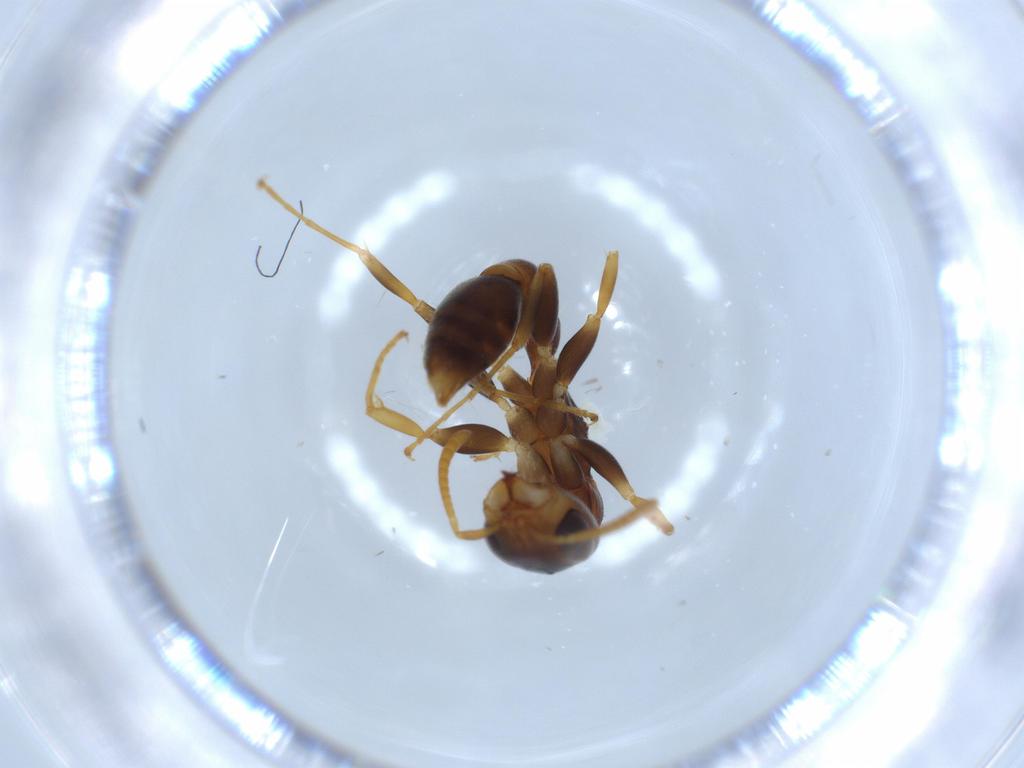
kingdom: Animalia
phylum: Arthropoda
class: Insecta
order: Hymenoptera
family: Formicidae
